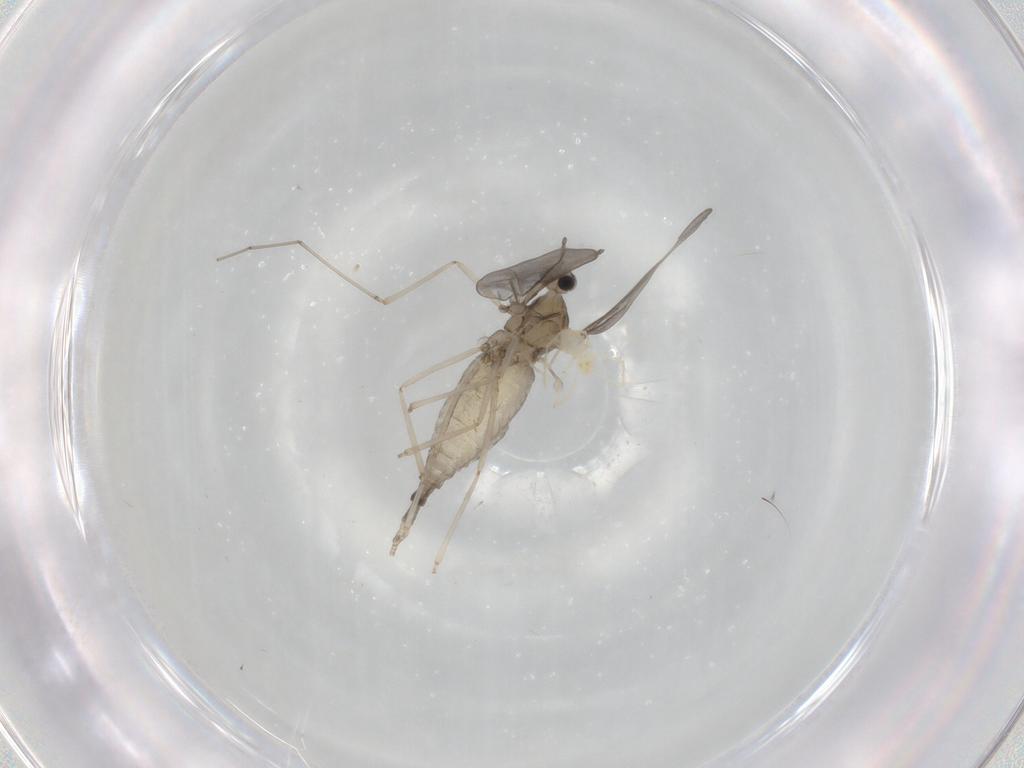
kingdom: Animalia
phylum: Arthropoda
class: Insecta
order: Diptera
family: Cecidomyiidae
